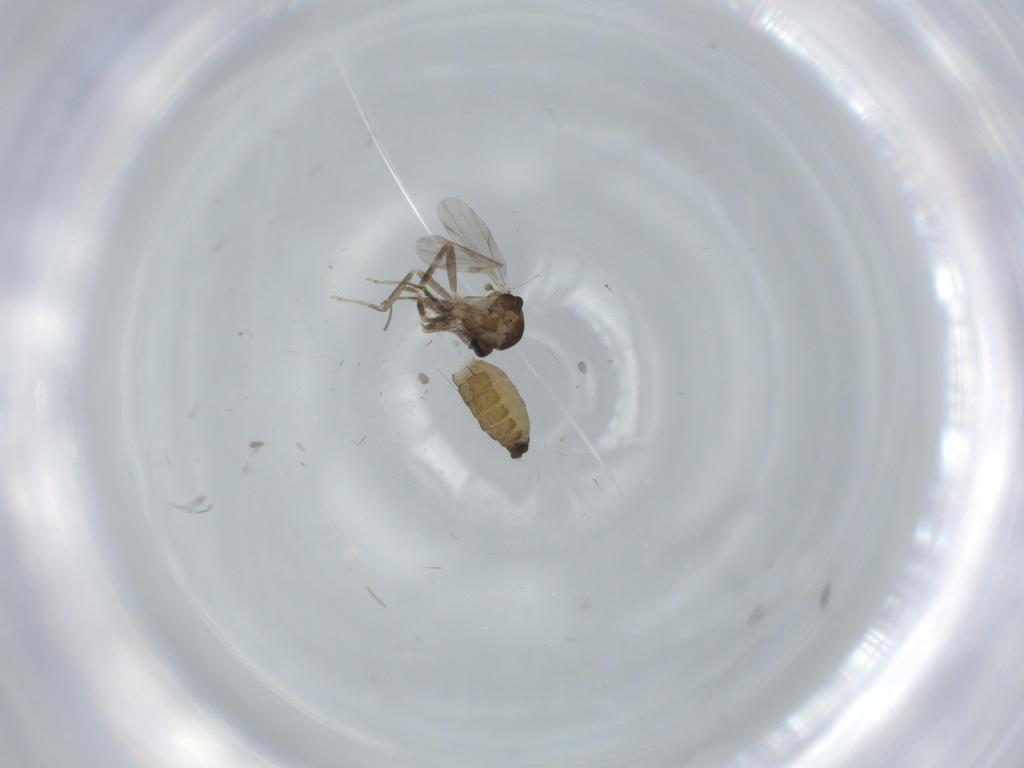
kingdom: Animalia
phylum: Arthropoda
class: Insecta
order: Diptera
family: Ceratopogonidae
